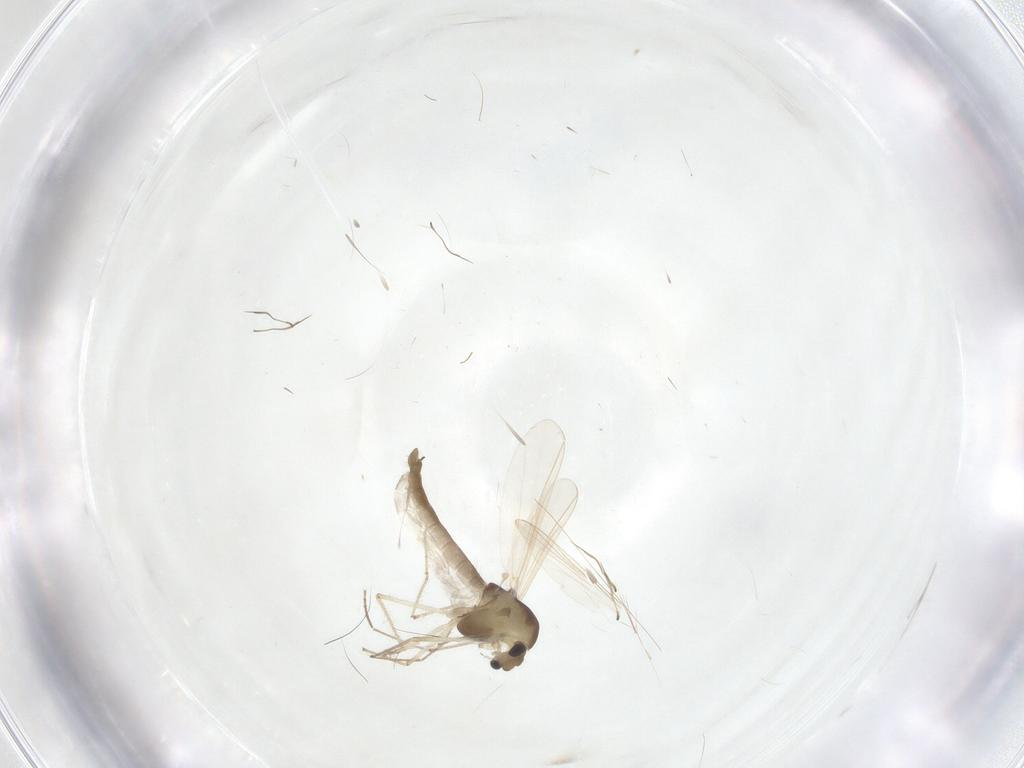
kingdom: Animalia
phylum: Arthropoda
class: Insecta
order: Diptera
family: Chironomidae
